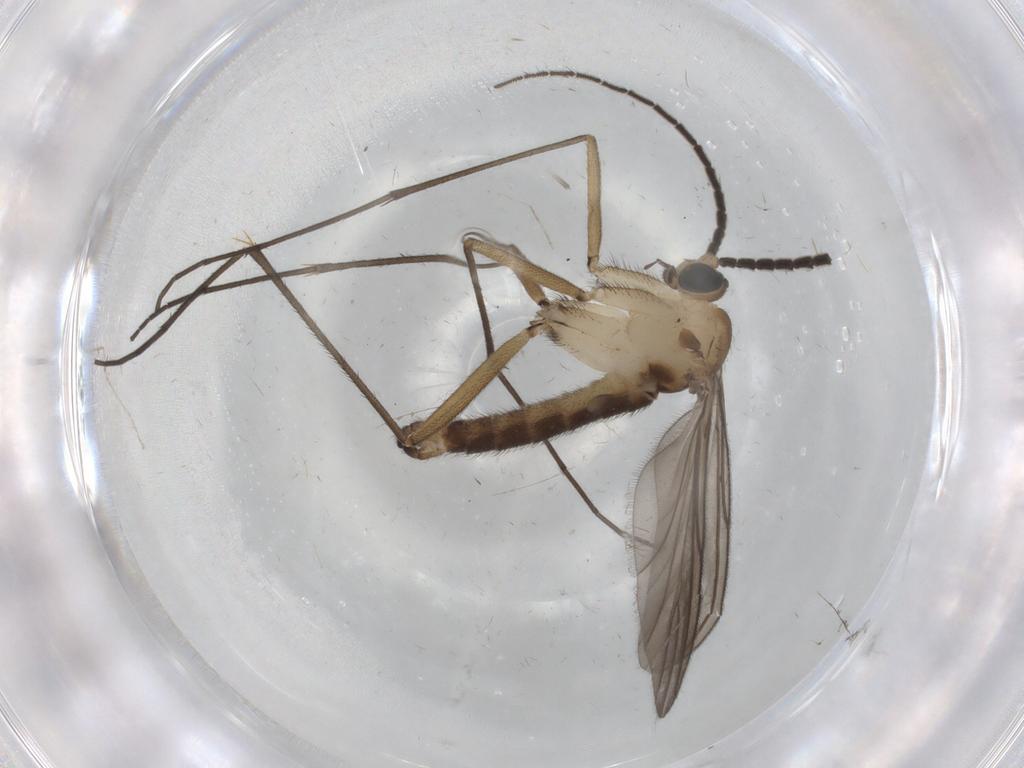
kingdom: Animalia
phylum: Arthropoda
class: Insecta
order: Diptera
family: Sciaridae
